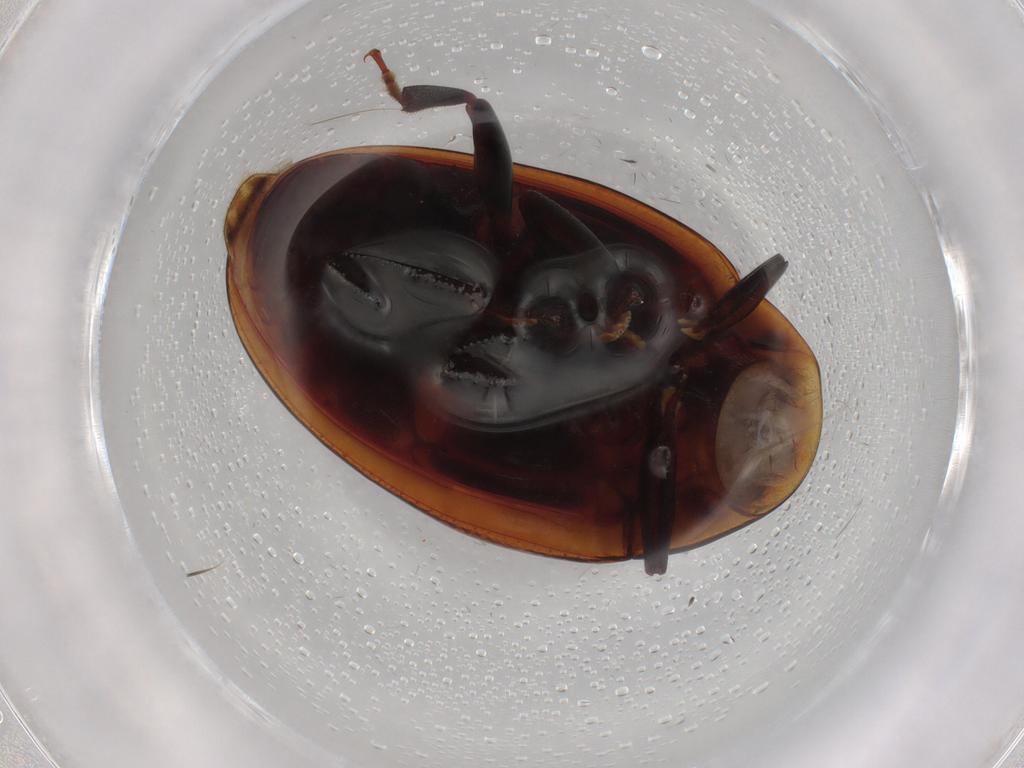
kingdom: Animalia
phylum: Arthropoda
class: Insecta
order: Coleoptera
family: Zopheridae
